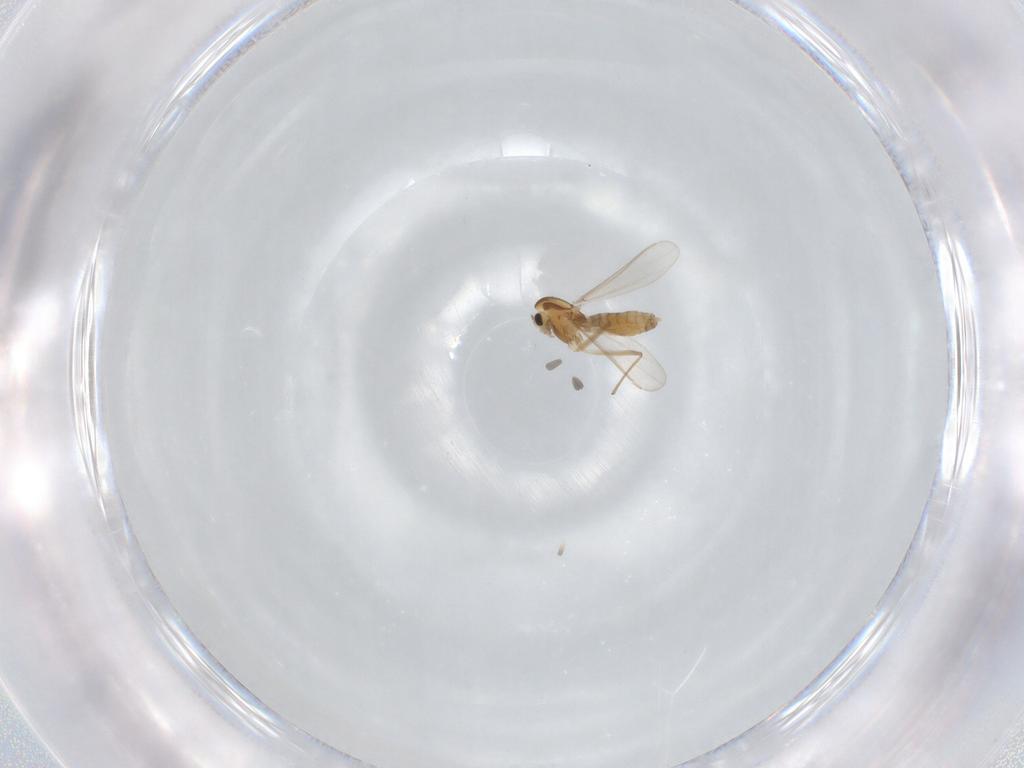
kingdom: Animalia
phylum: Arthropoda
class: Insecta
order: Diptera
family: Chironomidae
